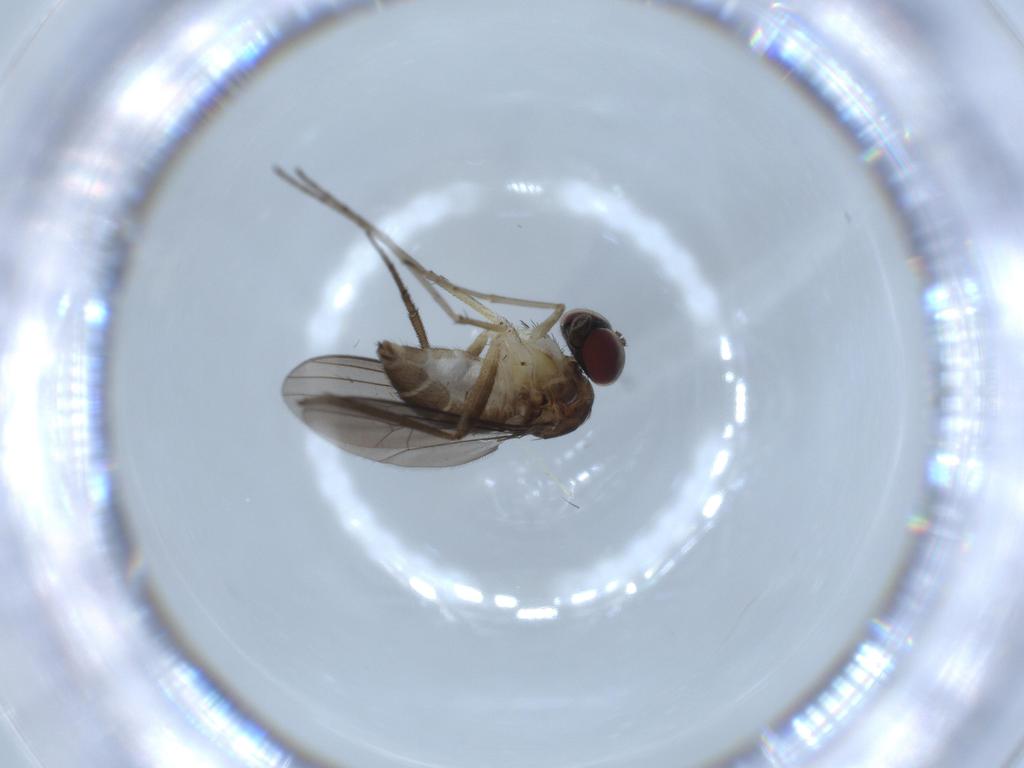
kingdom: Animalia
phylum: Arthropoda
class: Insecta
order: Diptera
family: Dolichopodidae
